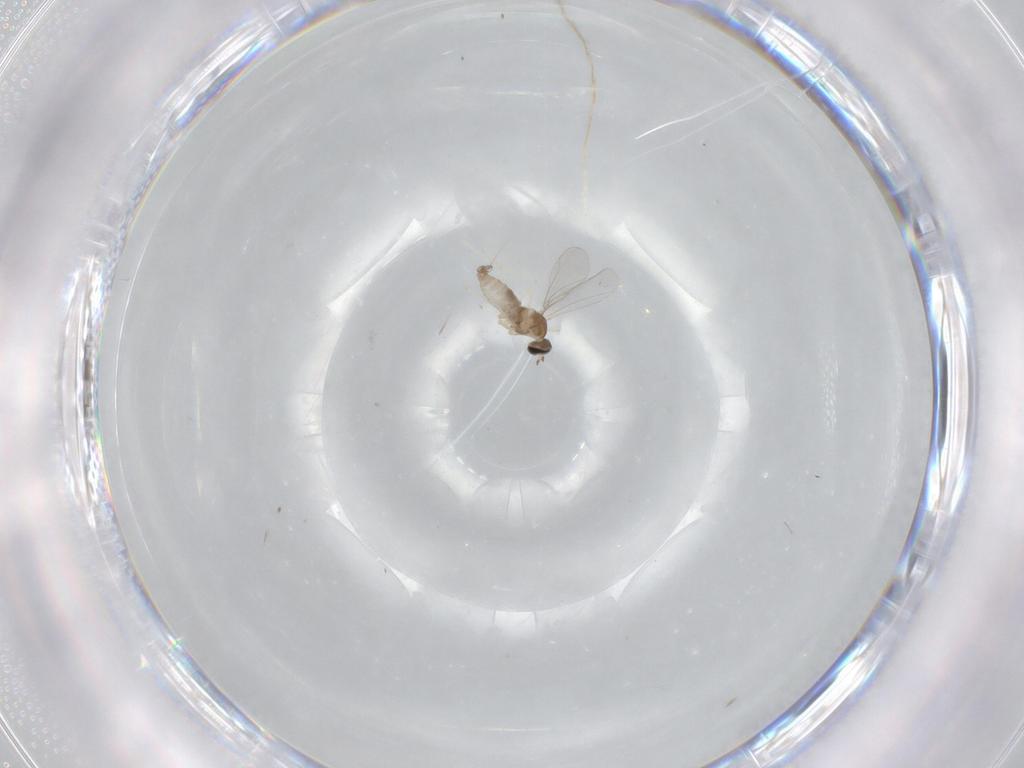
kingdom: Animalia
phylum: Arthropoda
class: Insecta
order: Diptera
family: Cecidomyiidae
